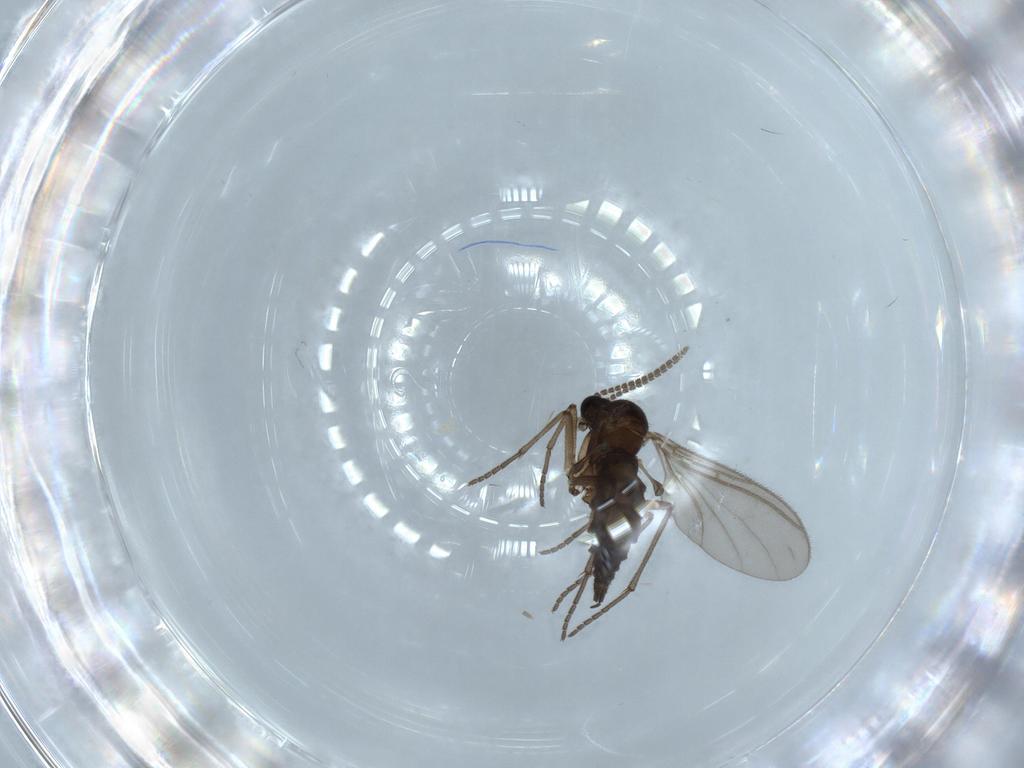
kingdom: Animalia
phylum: Arthropoda
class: Insecta
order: Diptera
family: Sciaridae
